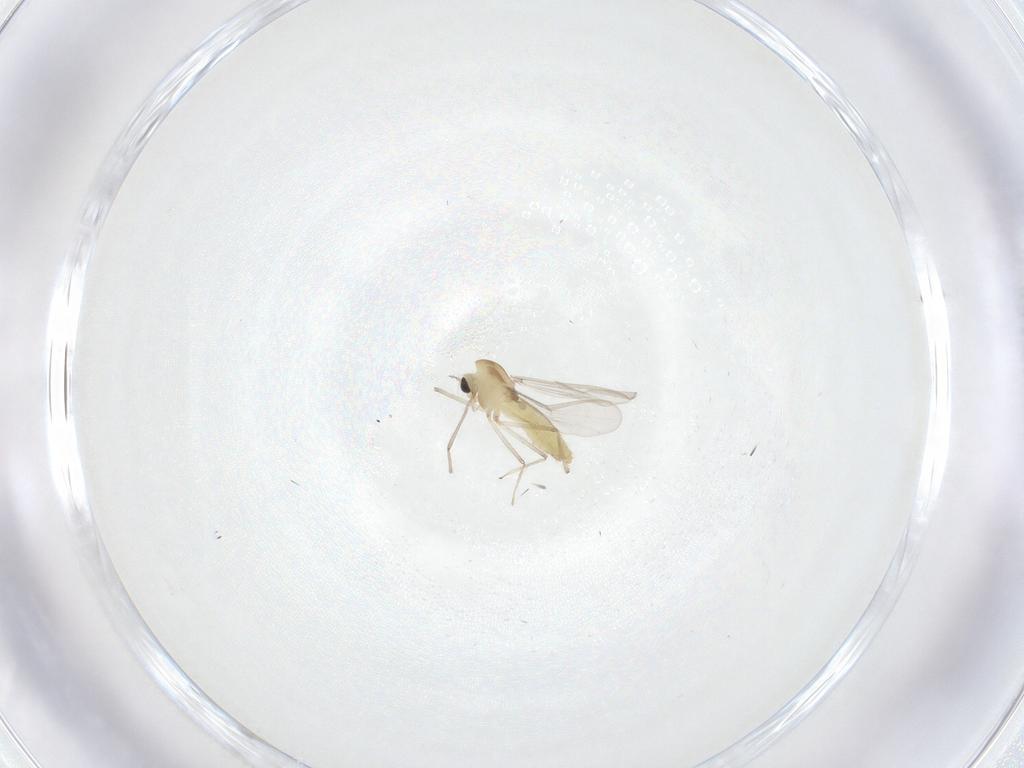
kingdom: Animalia
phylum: Arthropoda
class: Insecta
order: Diptera
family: Chironomidae
